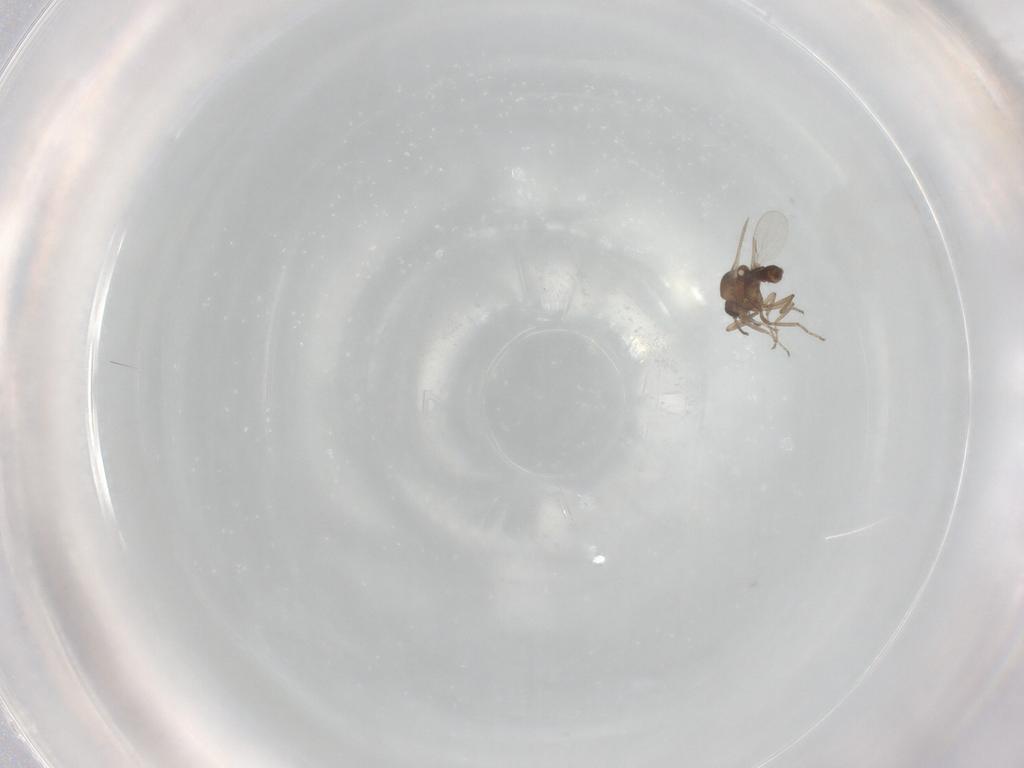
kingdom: Animalia
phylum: Arthropoda
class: Insecta
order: Diptera
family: Ceratopogonidae
